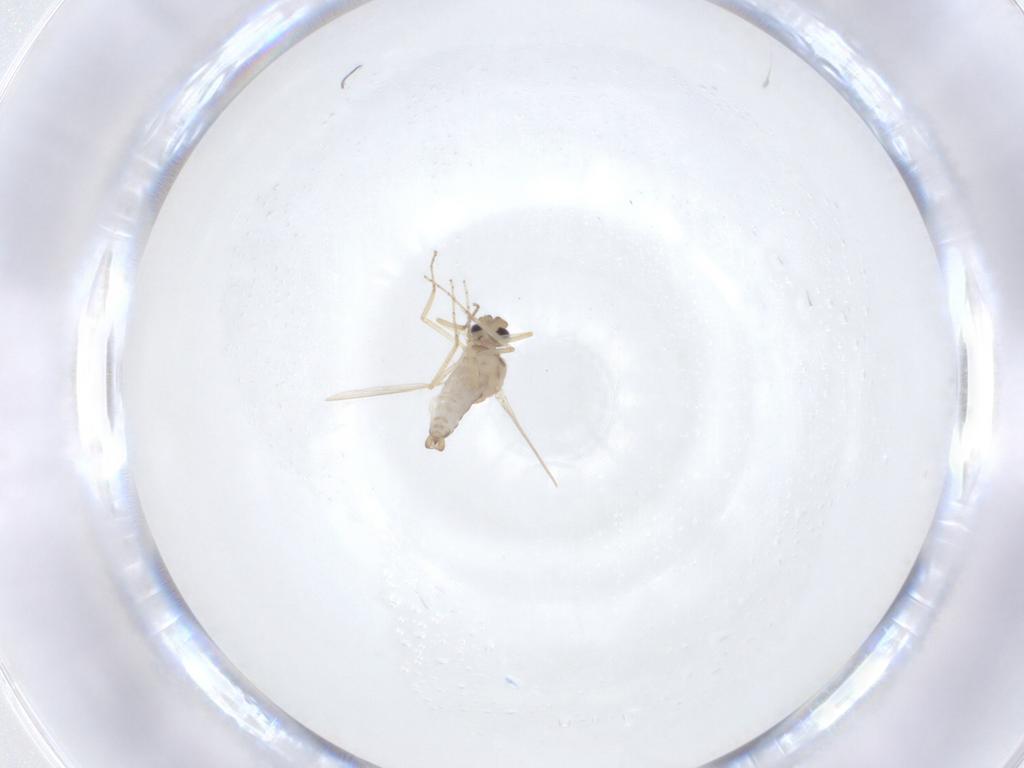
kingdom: Animalia
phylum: Arthropoda
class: Insecta
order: Diptera
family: Ceratopogonidae
